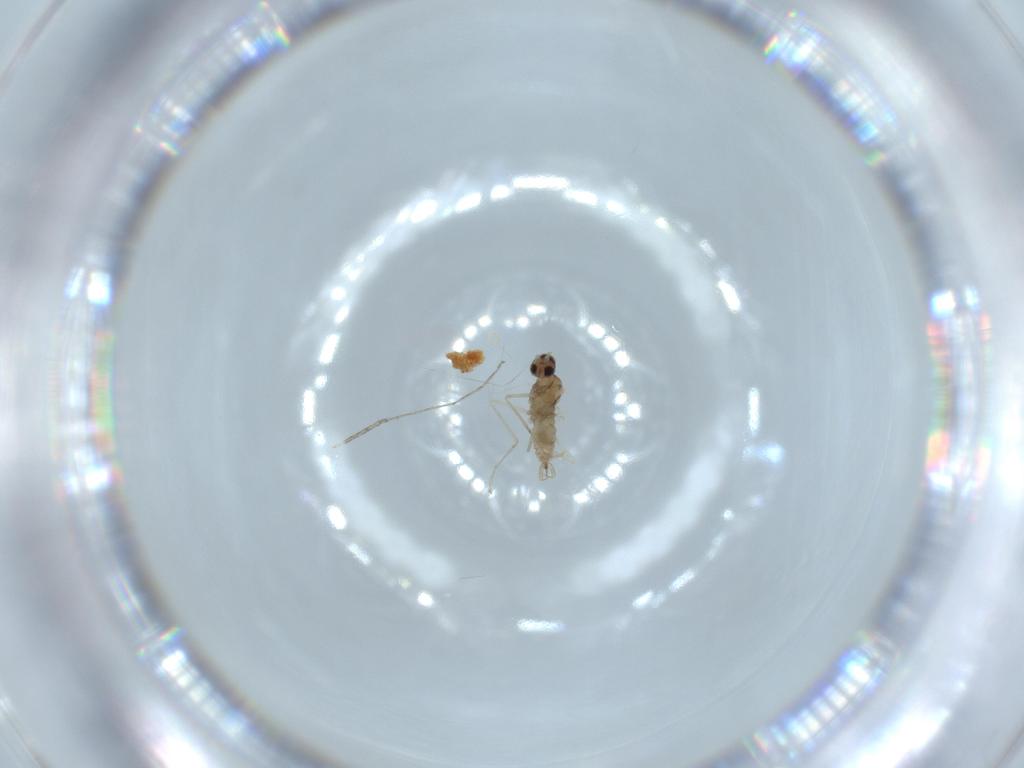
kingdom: Animalia
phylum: Arthropoda
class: Insecta
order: Diptera
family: Cecidomyiidae
